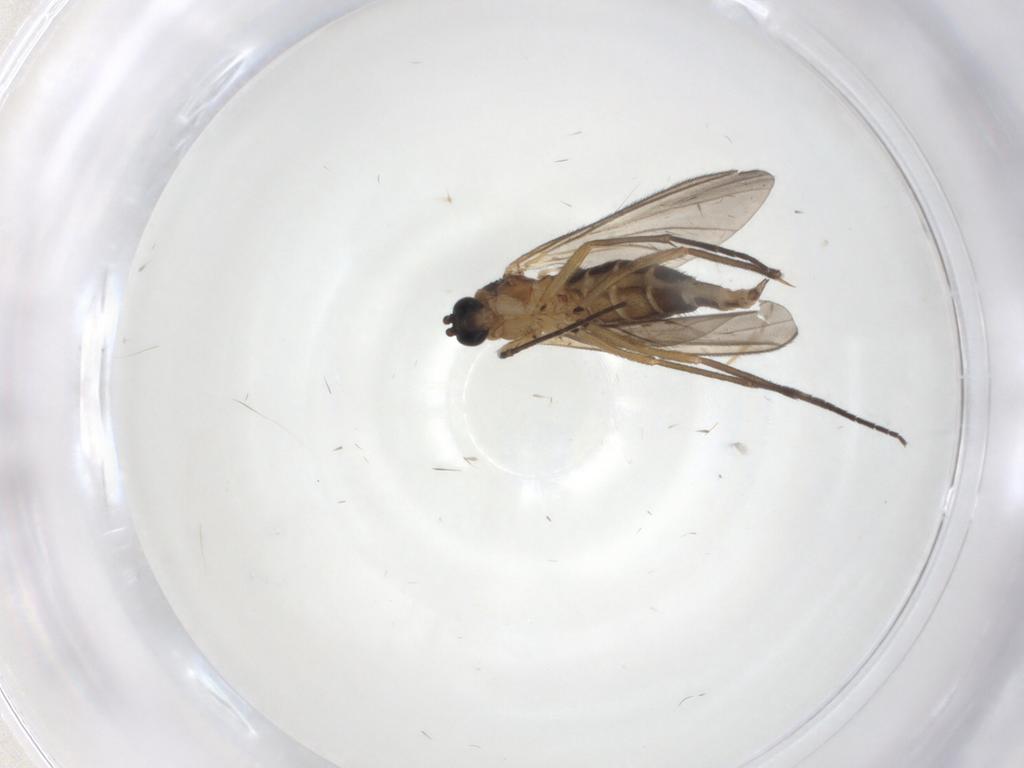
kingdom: Animalia
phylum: Arthropoda
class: Insecta
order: Diptera
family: Sciaridae
